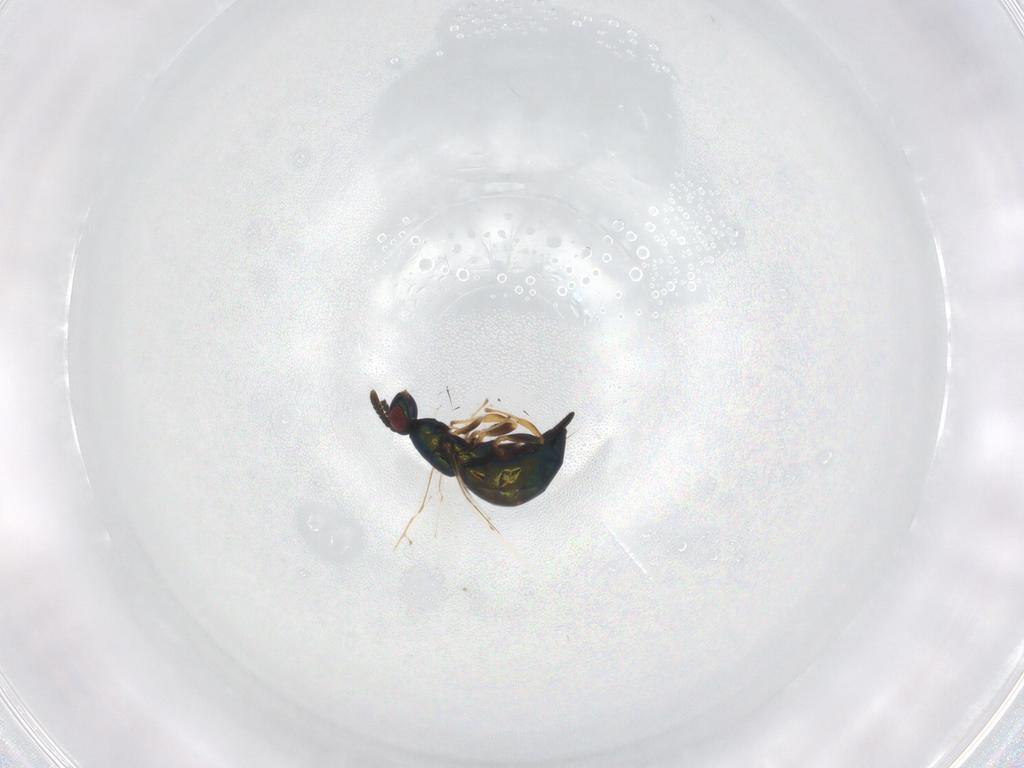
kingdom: Animalia
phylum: Arthropoda
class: Insecta
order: Hymenoptera
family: Pteromalidae
